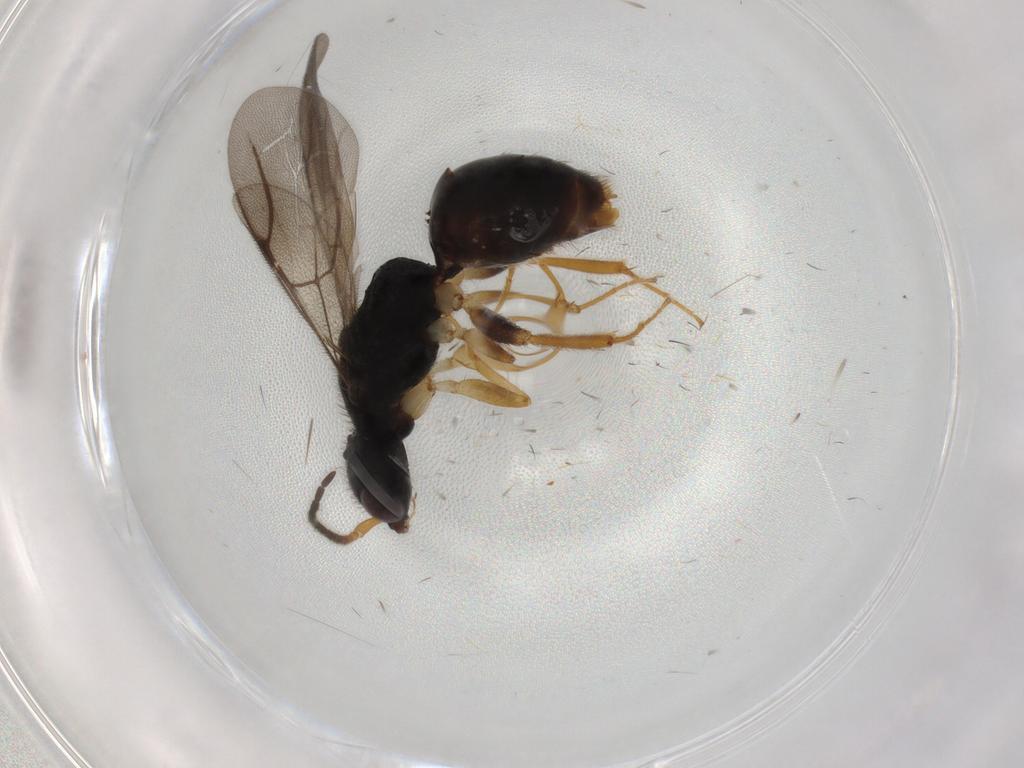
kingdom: Animalia
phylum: Arthropoda
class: Insecta
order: Hymenoptera
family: Bethylidae
